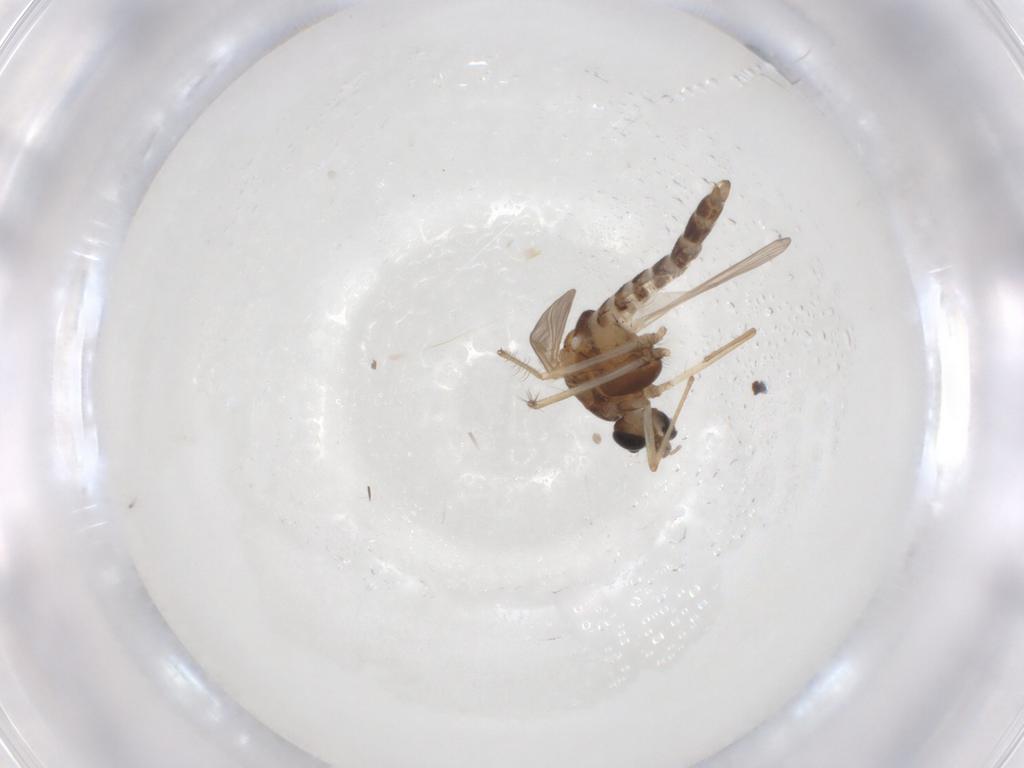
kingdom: Animalia
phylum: Arthropoda
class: Insecta
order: Diptera
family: Chironomidae
